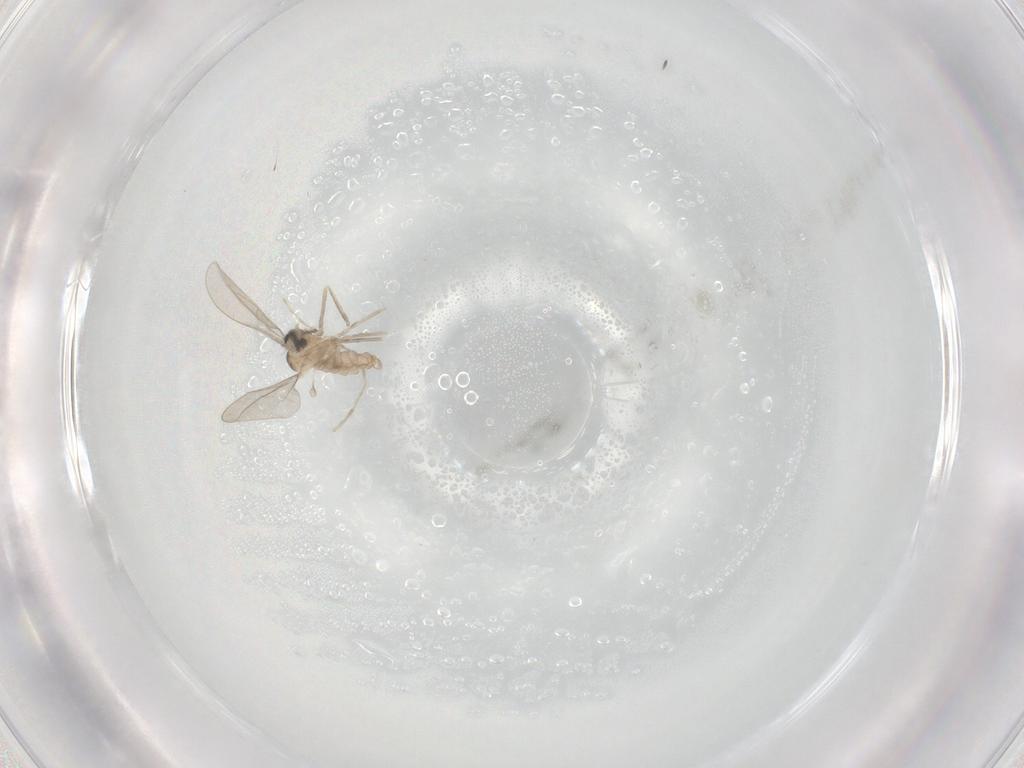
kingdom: Animalia
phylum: Arthropoda
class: Insecta
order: Diptera
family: Cecidomyiidae
